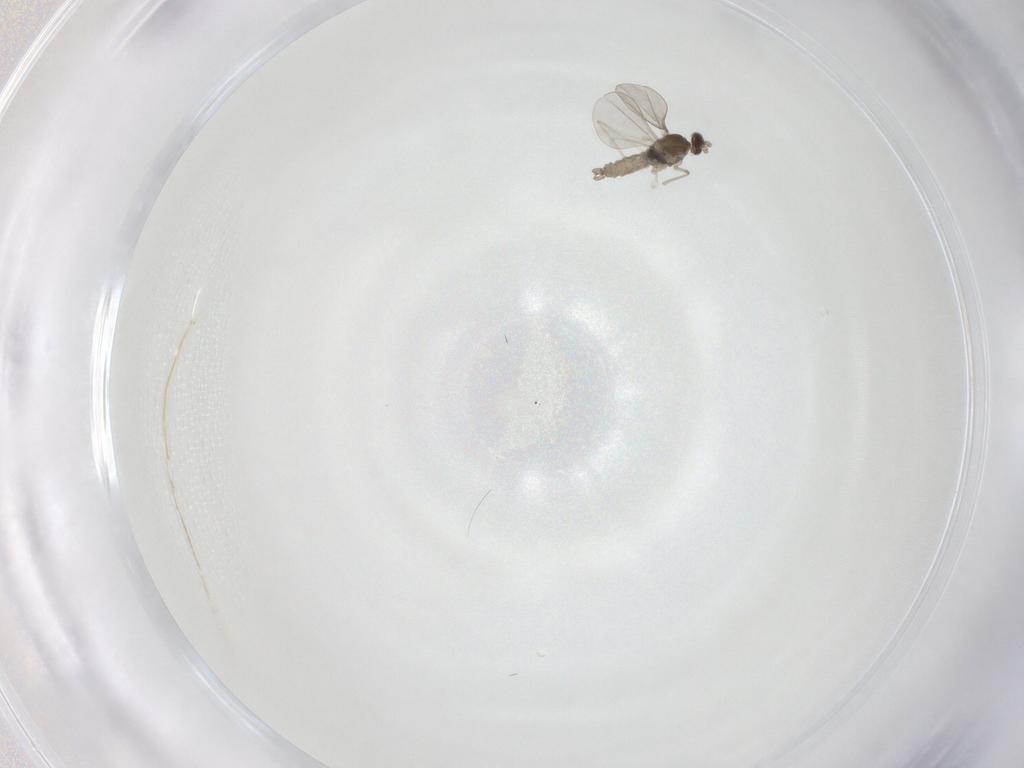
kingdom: Animalia
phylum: Arthropoda
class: Insecta
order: Diptera
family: Cecidomyiidae
